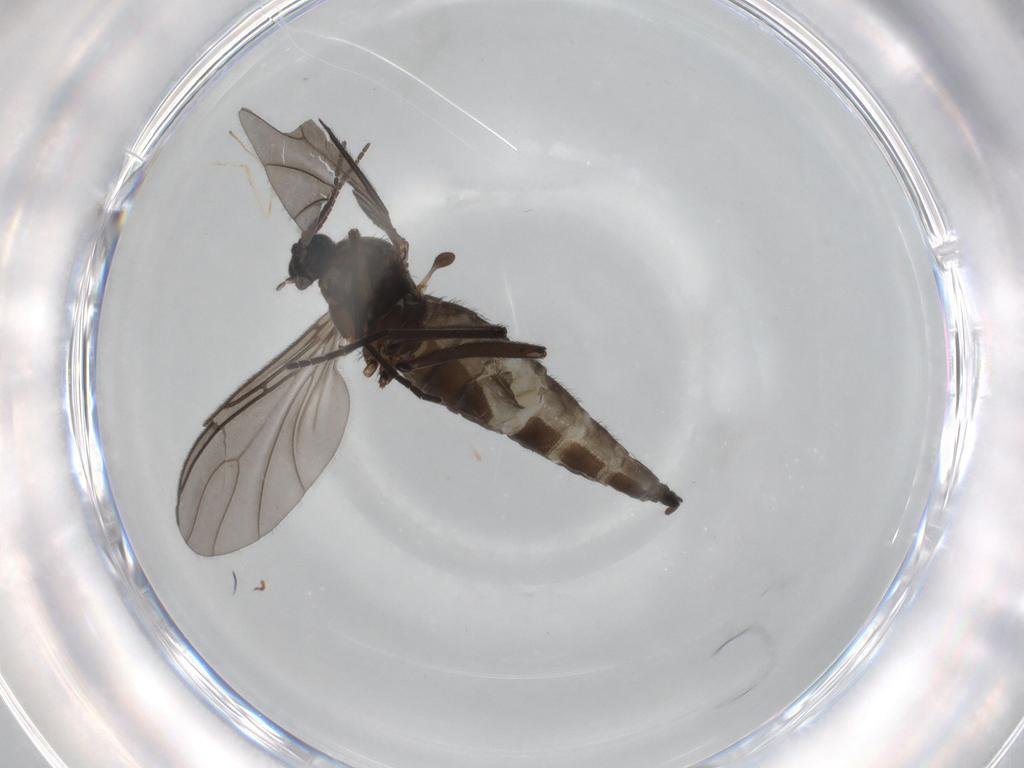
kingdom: Animalia
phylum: Arthropoda
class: Insecta
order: Diptera
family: Sciaridae
